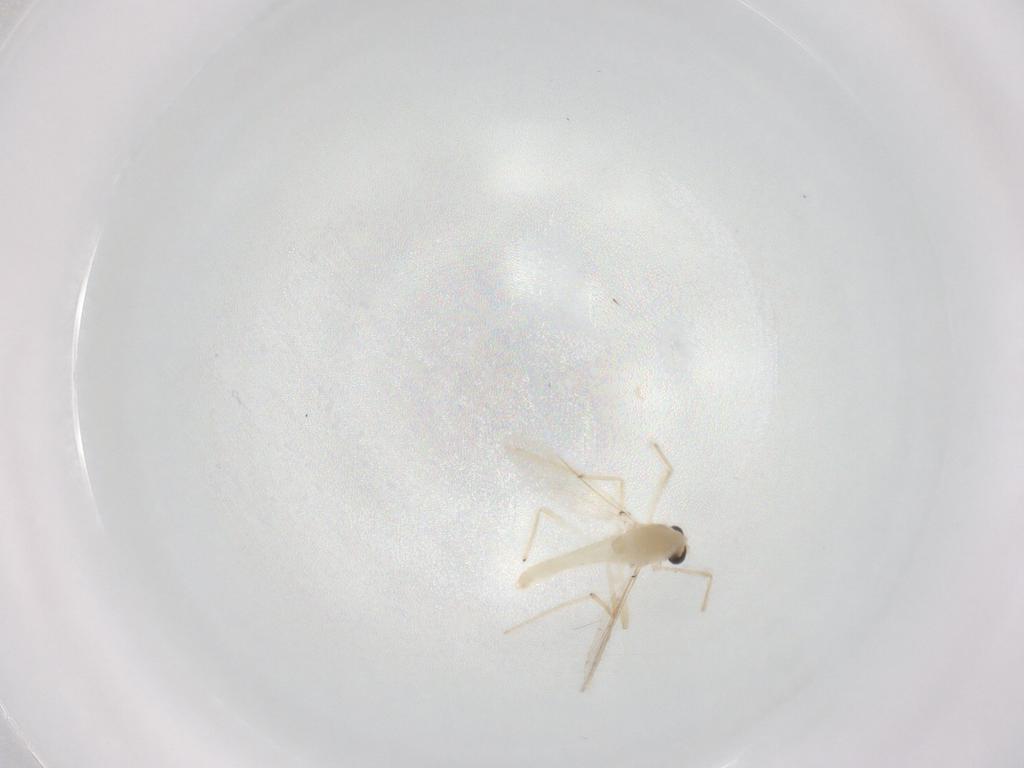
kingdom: Animalia
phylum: Arthropoda
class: Insecta
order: Diptera
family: Chironomidae
